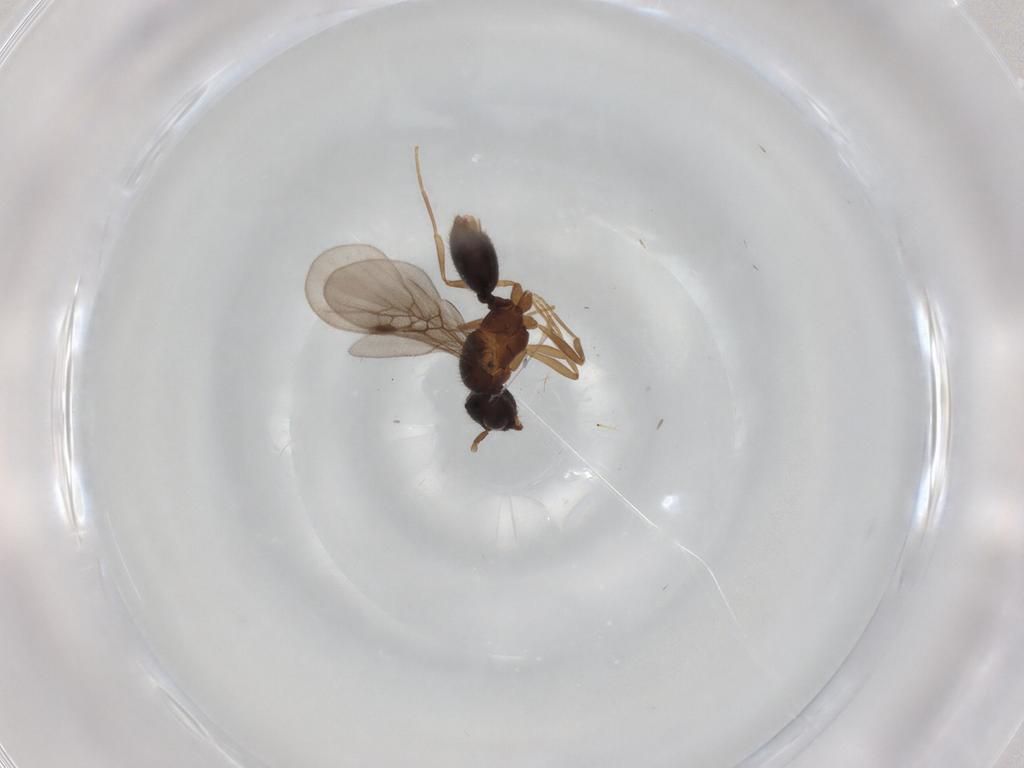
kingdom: Animalia
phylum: Arthropoda
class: Insecta
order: Hymenoptera
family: Formicidae
